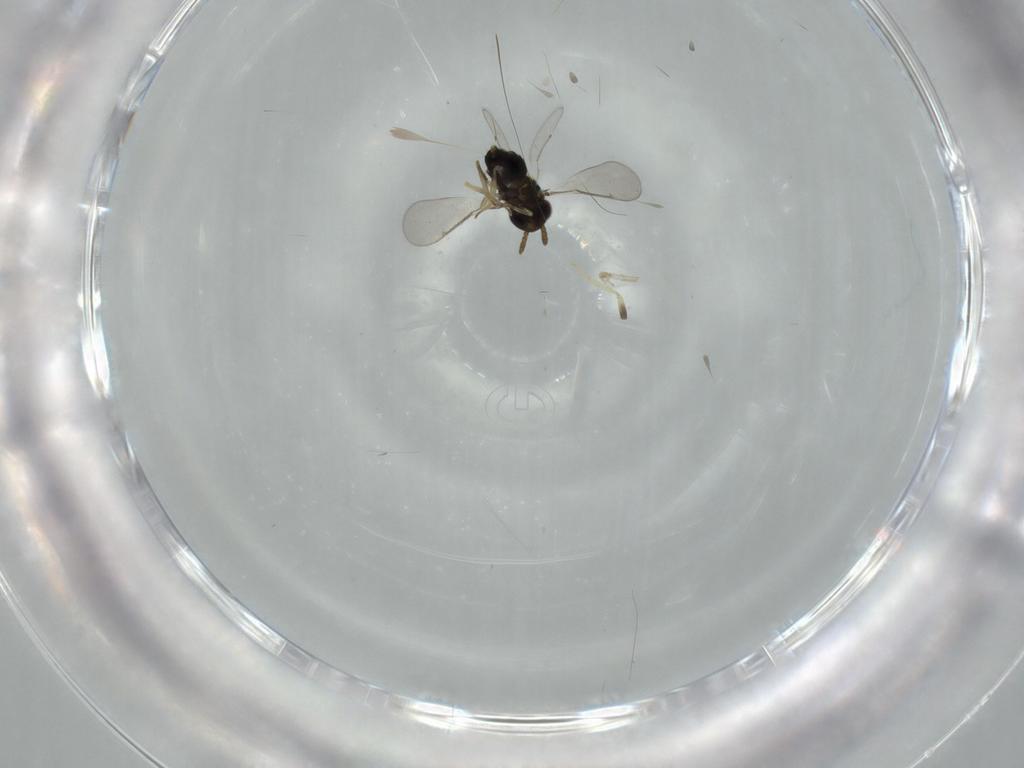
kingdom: Animalia
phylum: Arthropoda
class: Insecta
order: Hymenoptera
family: Aphelinidae
